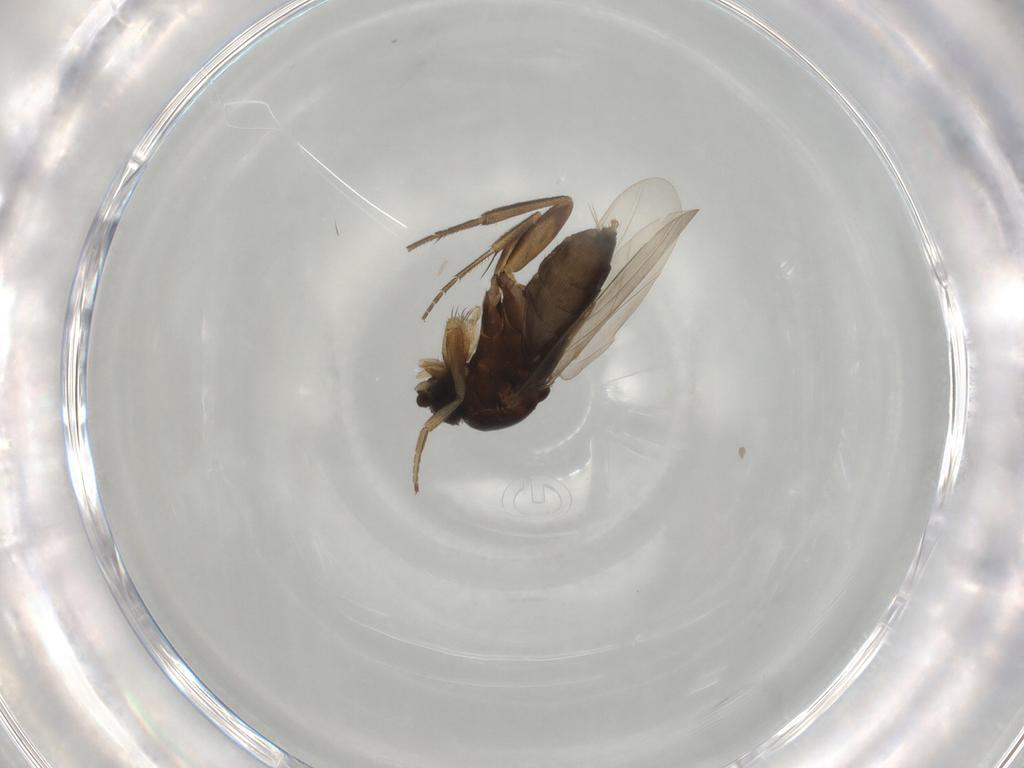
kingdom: Animalia
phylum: Arthropoda
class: Insecta
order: Diptera
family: Phoridae
